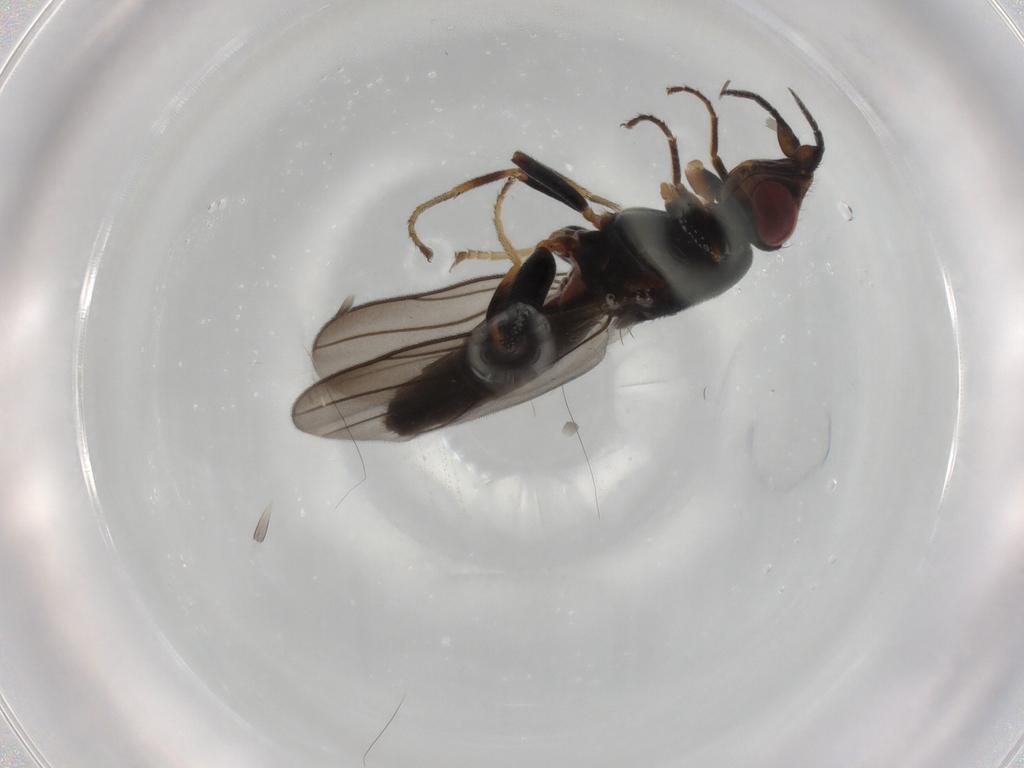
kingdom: Animalia
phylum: Arthropoda
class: Insecta
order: Diptera
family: Chloropidae
